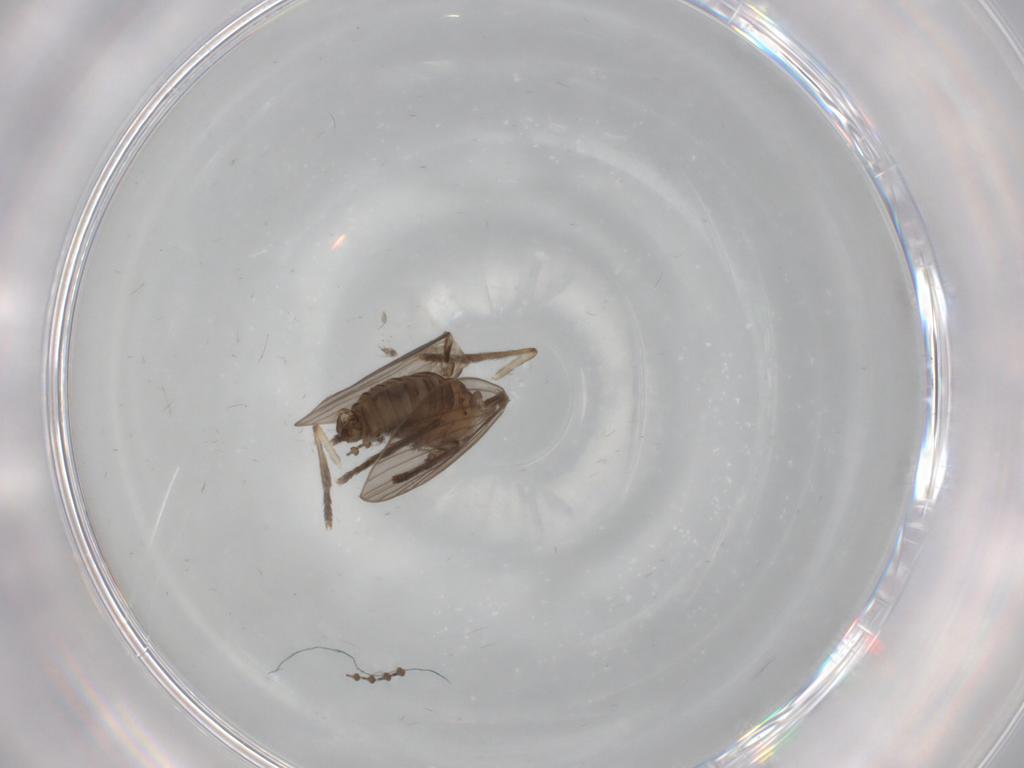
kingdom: Animalia
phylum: Arthropoda
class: Insecta
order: Diptera
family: Psychodidae
